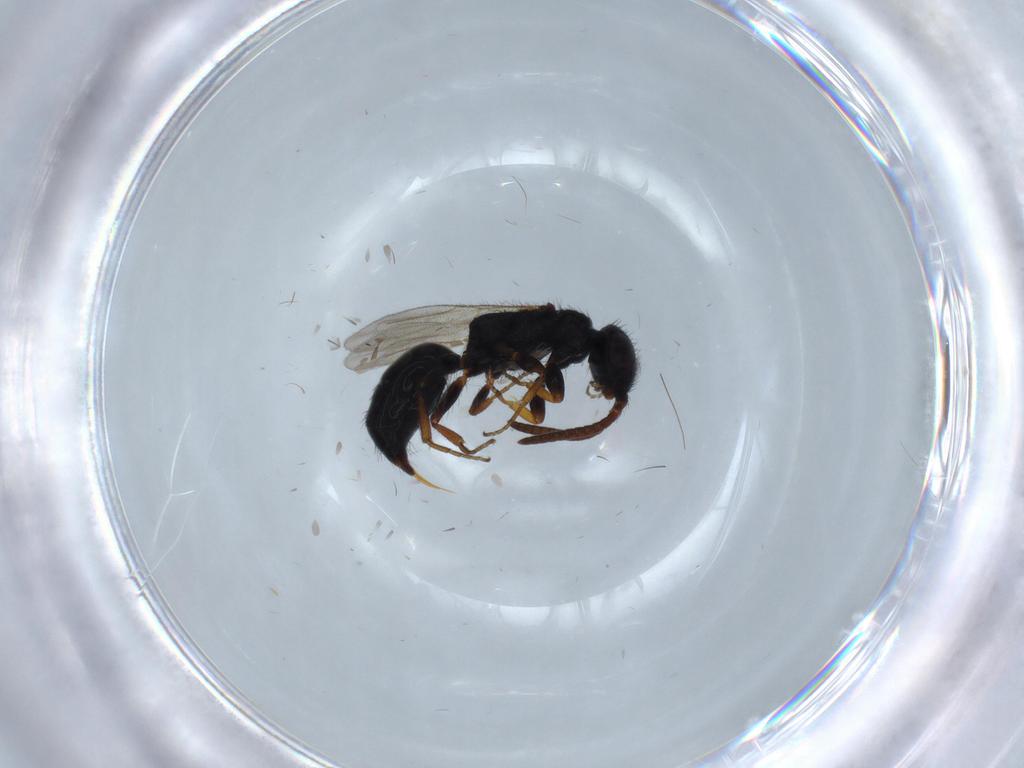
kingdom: Animalia
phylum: Arthropoda
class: Insecta
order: Hymenoptera
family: Bethylidae
